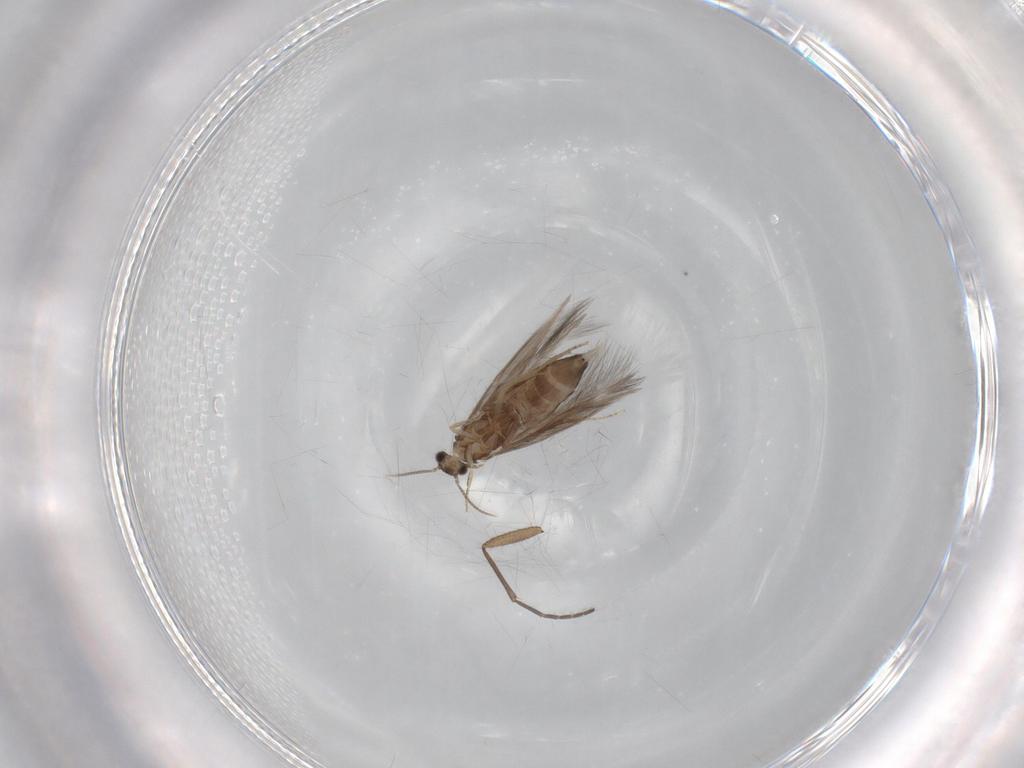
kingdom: Animalia
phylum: Arthropoda
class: Insecta
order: Trichoptera
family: Hydroptilidae
